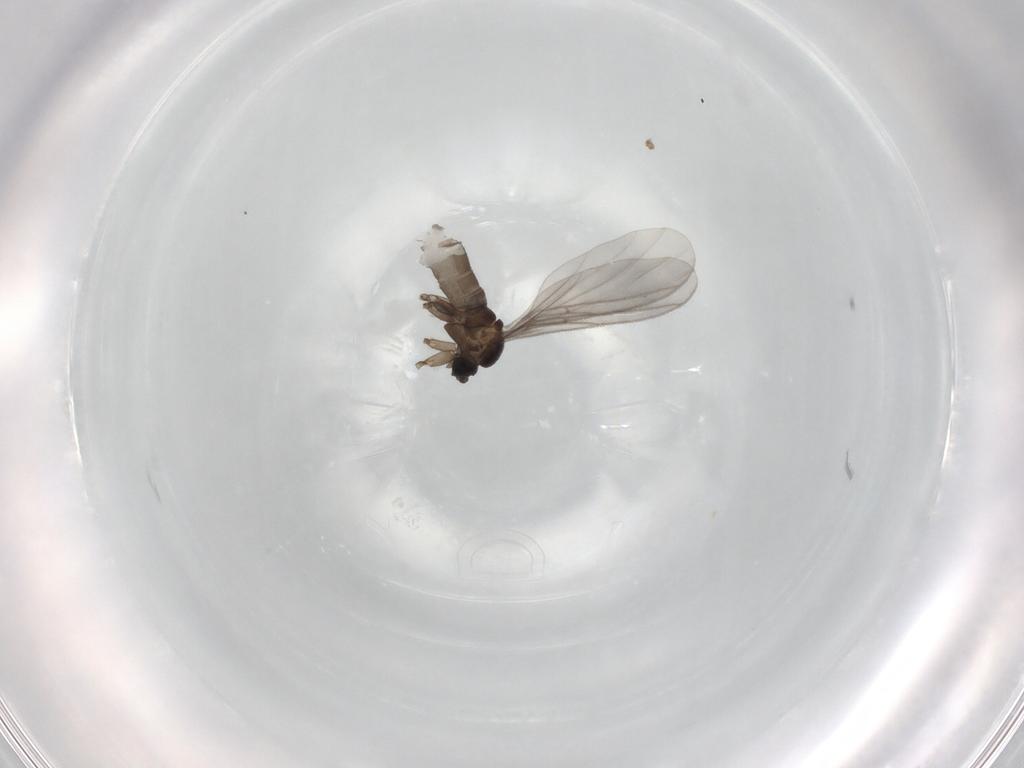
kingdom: Animalia
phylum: Arthropoda
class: Insecta
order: Diptera
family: Sciaridae
